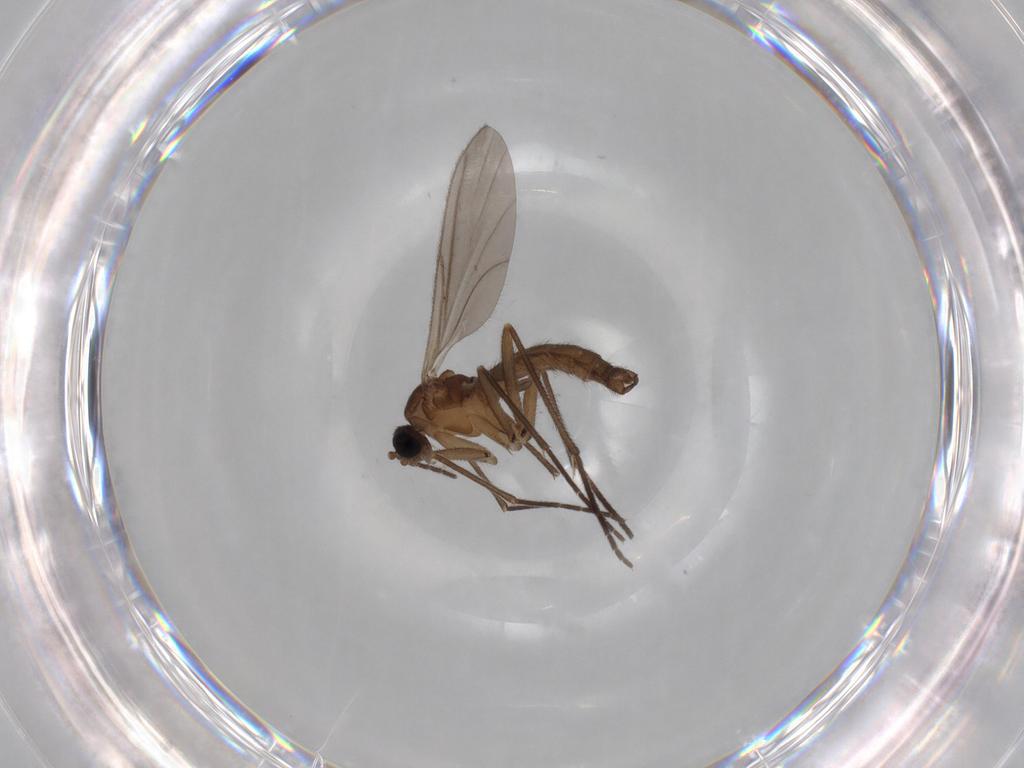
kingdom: Animalia
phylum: Arthropoda
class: Insecta
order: Diptera
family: Sciaridae
